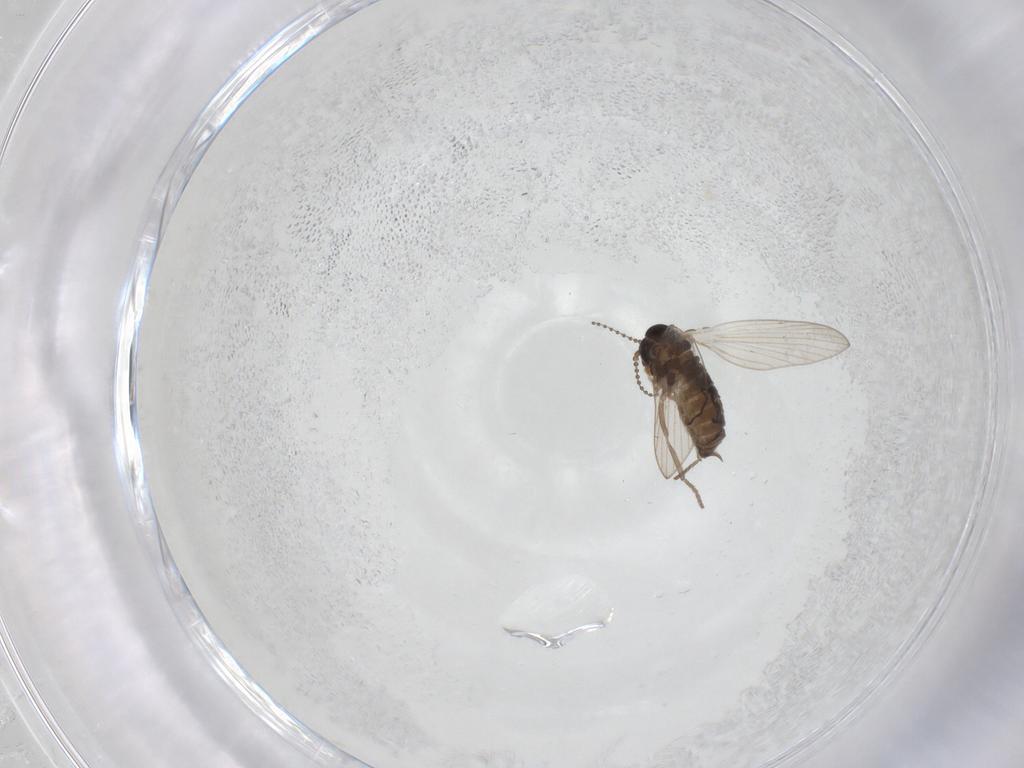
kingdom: Animalia
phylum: Arthropoda
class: Insecta
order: Diptera
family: Psychodidae
